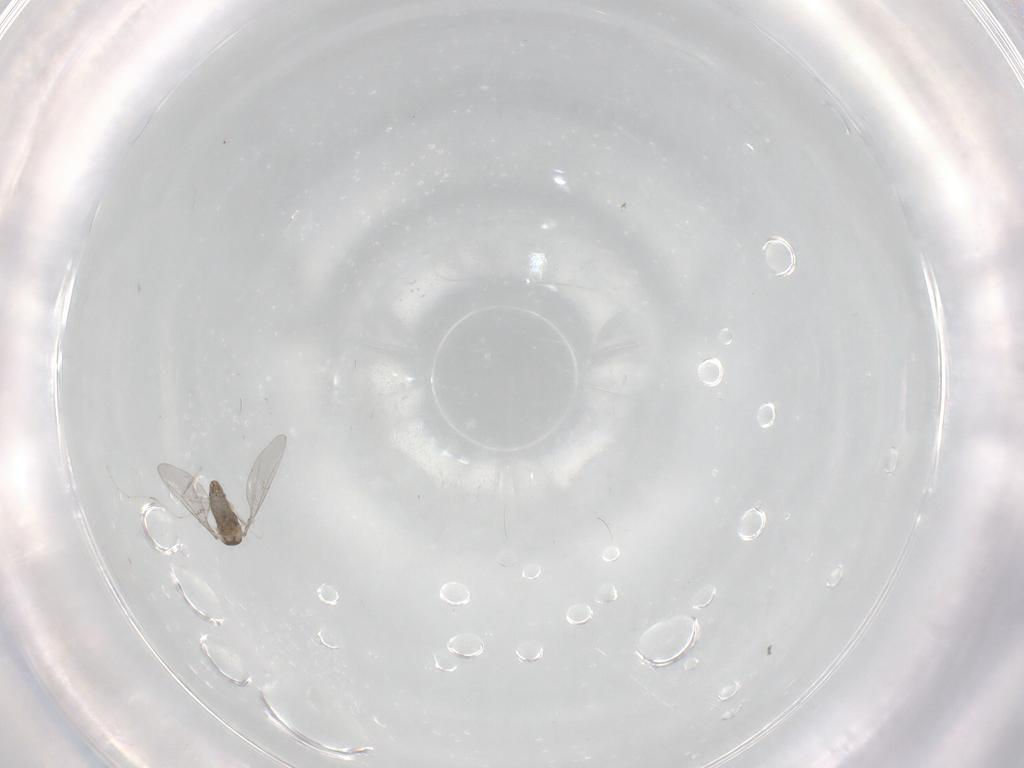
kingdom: Animalia
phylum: Arthropoda
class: Insecta
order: Diptera
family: Cecidomyiidae
